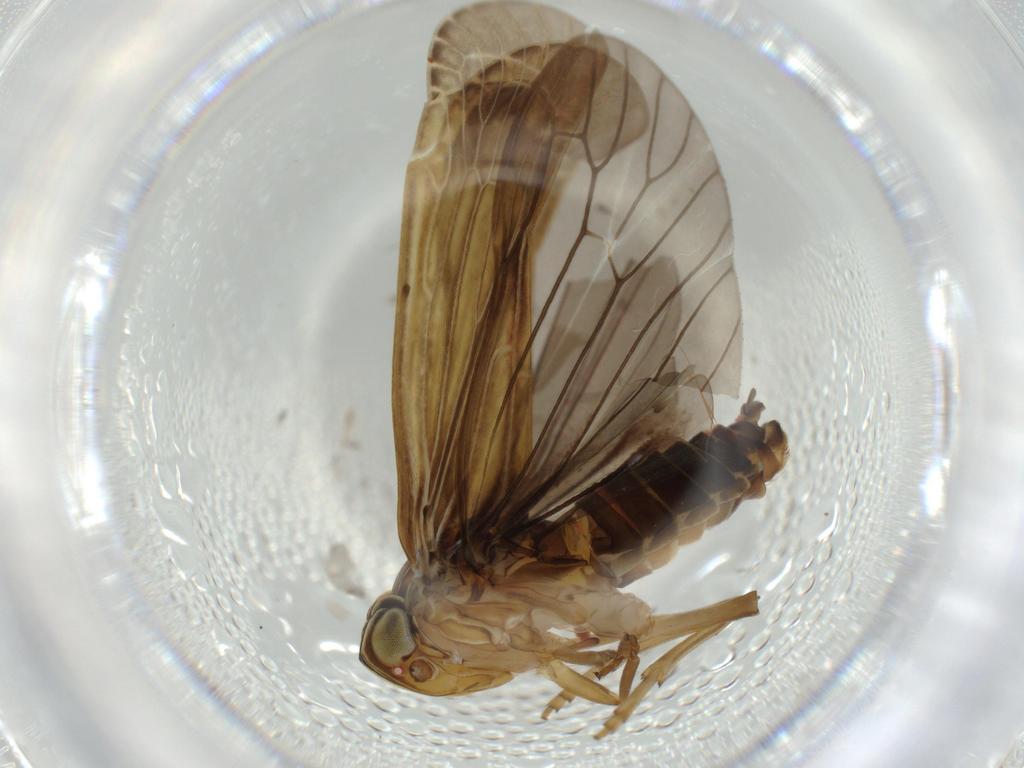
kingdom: Animalia
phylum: Arthropoda
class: Insecta
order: Hemiptera
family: Achilidae
